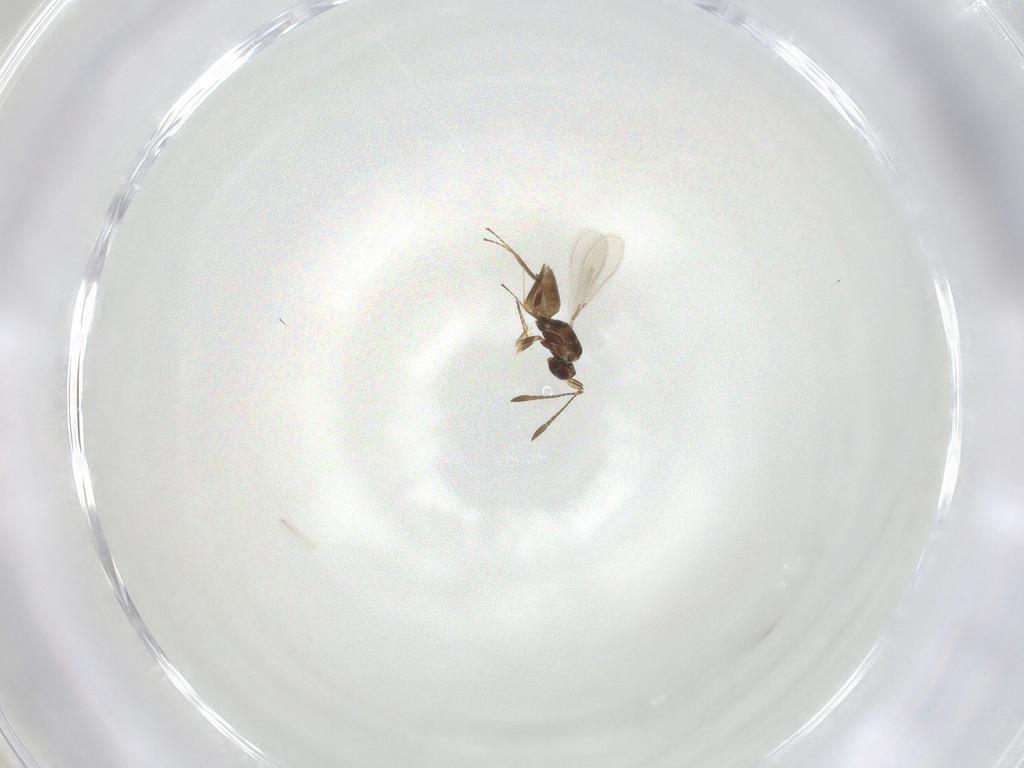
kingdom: Animalia
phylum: Arthropoda
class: Insecta
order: Hymenoptera
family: Mymaridae
